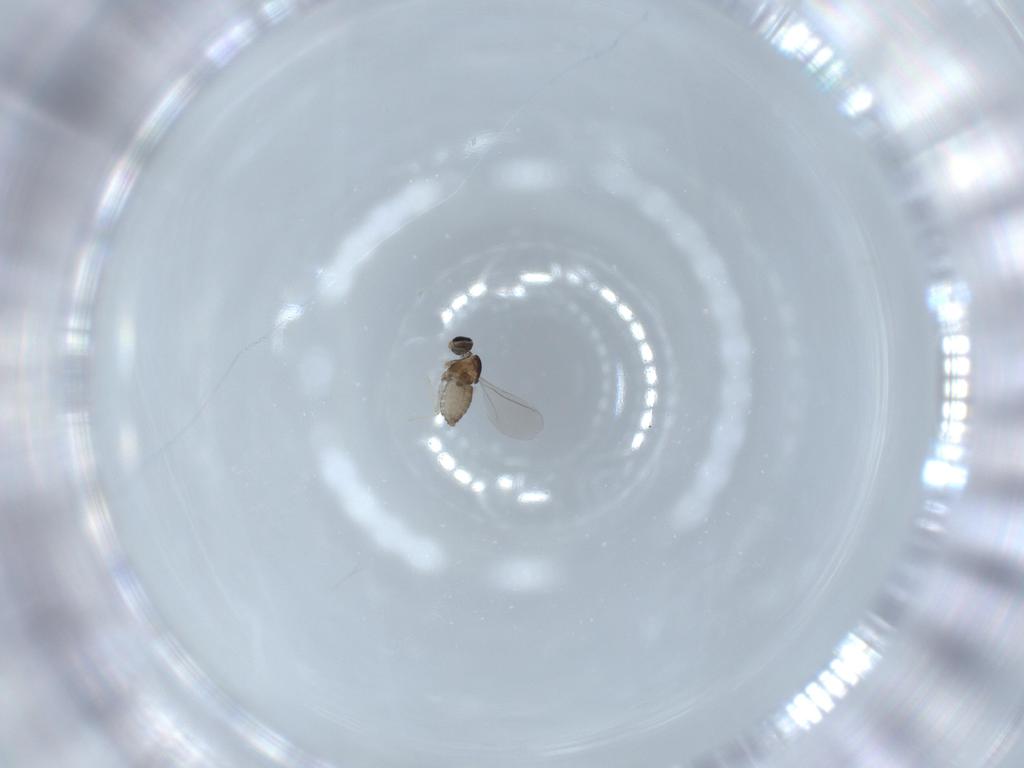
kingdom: Animalia
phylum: Arthropoda
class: Insecta
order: Diptera
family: Cecidomyiidae
